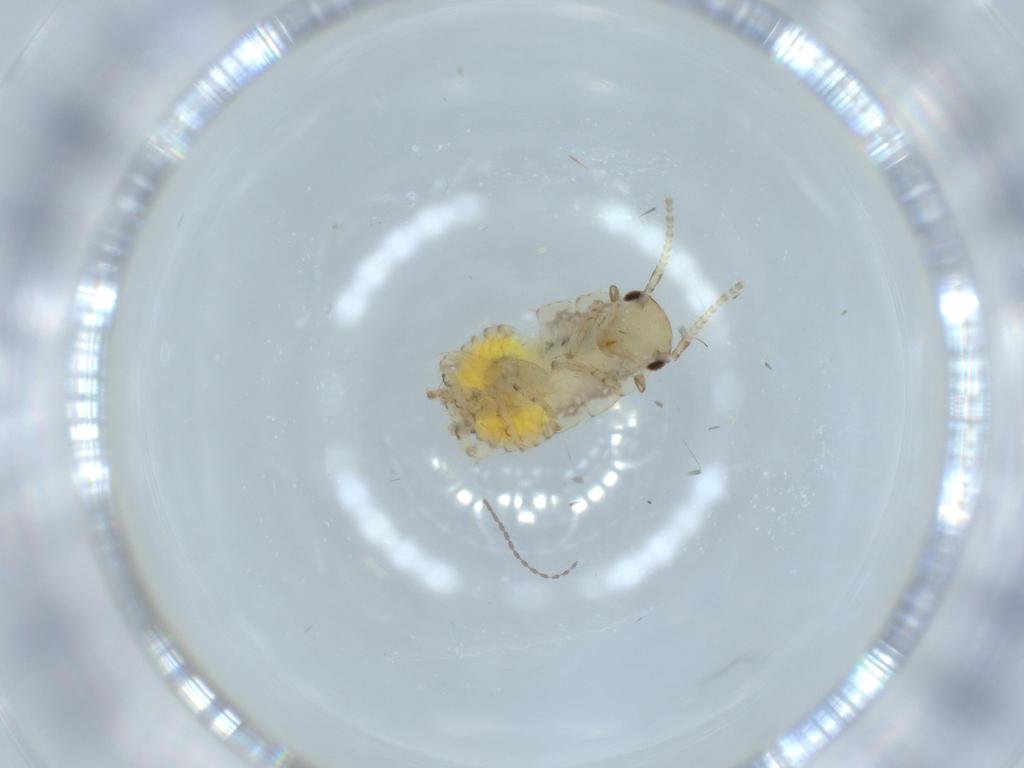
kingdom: Animalia
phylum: Arthropoda
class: Insecta
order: Blattodea
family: Ectobiidae
